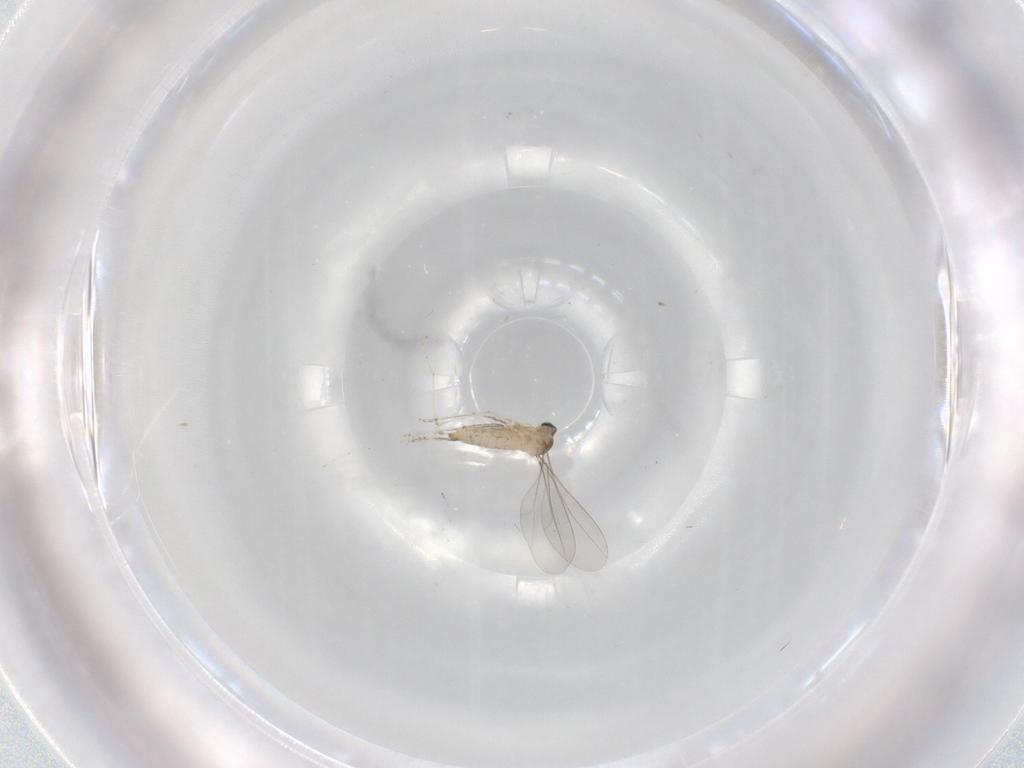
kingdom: Animalia
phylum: Arthropoda
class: Insecta
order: Diptera
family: Cecidomyiidae
